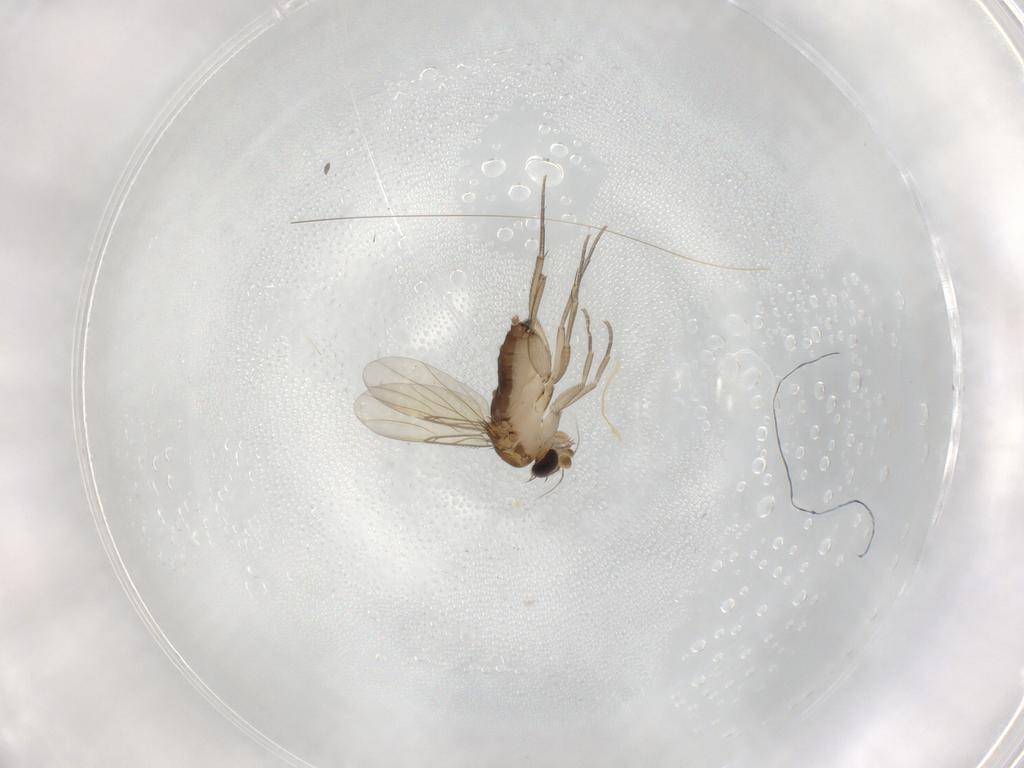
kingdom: Animalia
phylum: Arthropoda
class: Insecta
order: Diptera
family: Phoridae
